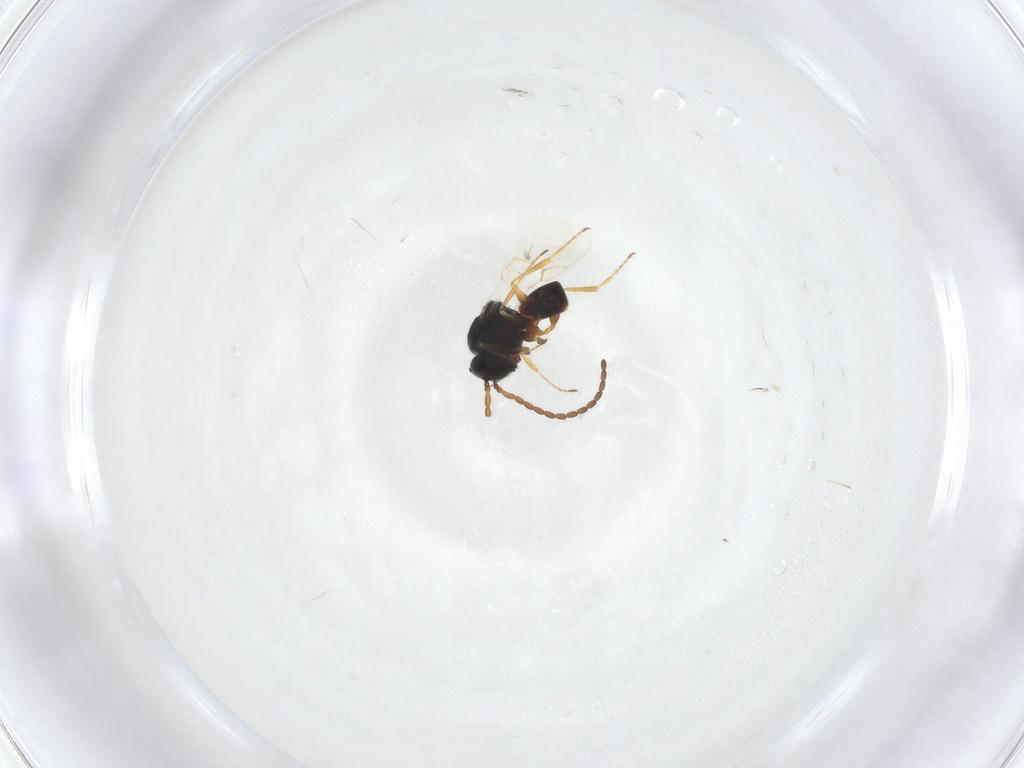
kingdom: Animalia
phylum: Arthropoda
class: Insecta
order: Hymenoptera
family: Figitidae
